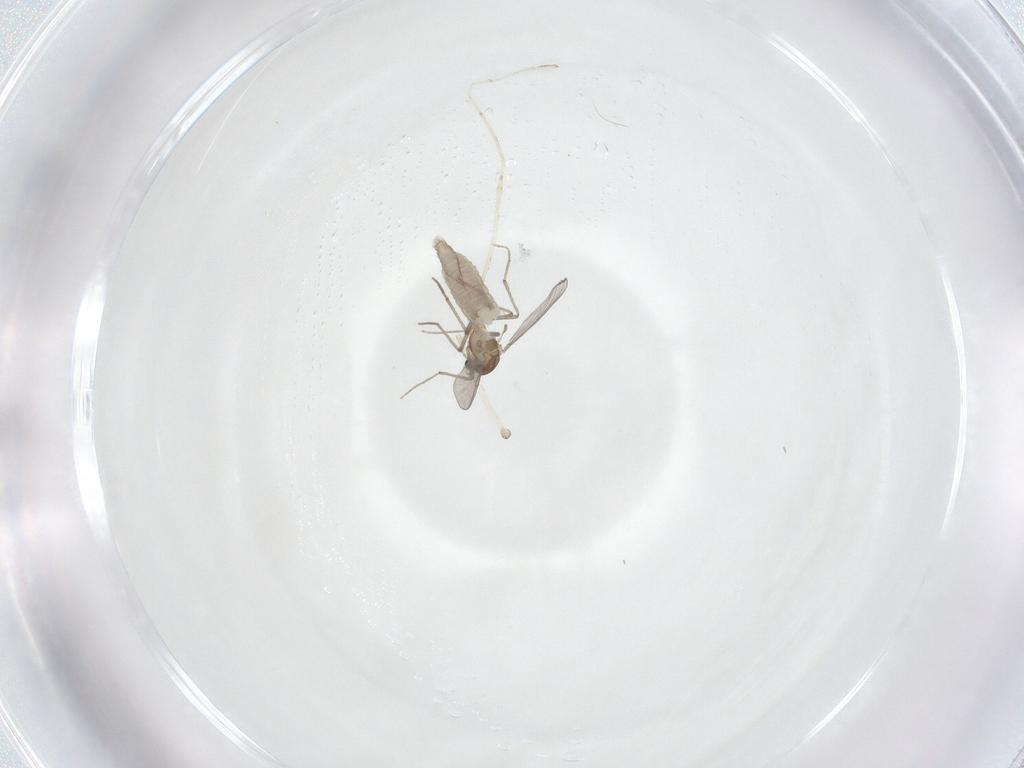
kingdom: Animalia
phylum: Arthropoda
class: Insecta
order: Diptera
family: Chironomidae
